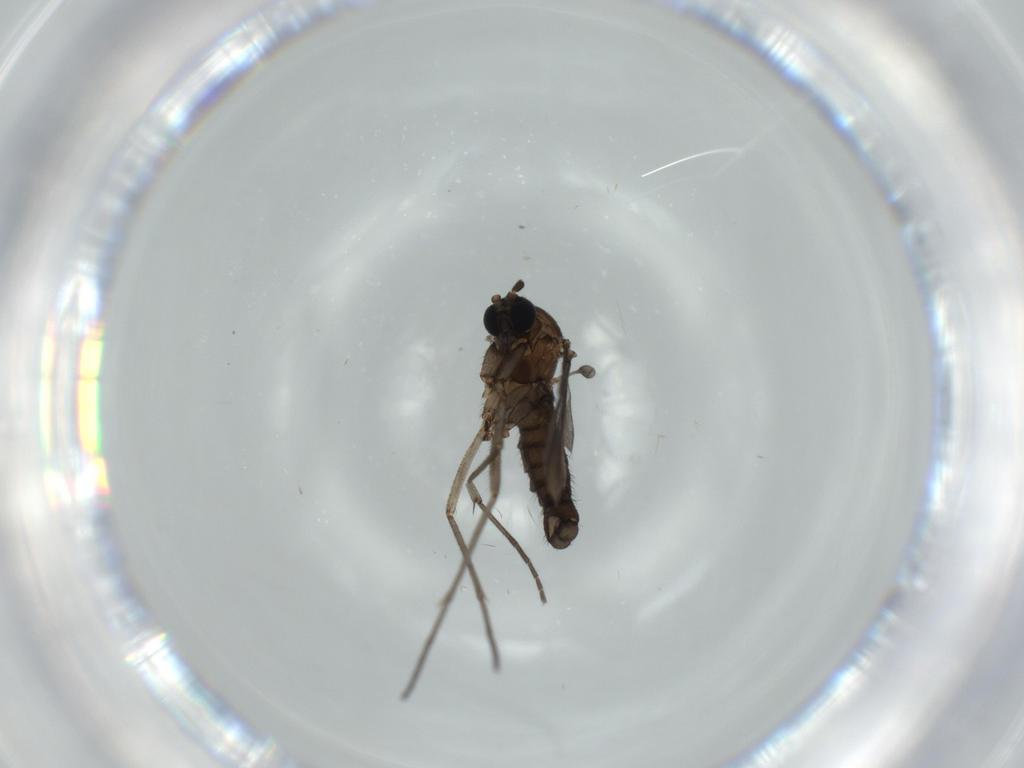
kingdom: Animalia
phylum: Arthropoda
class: Insecta
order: Diptera
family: Sciaridae
